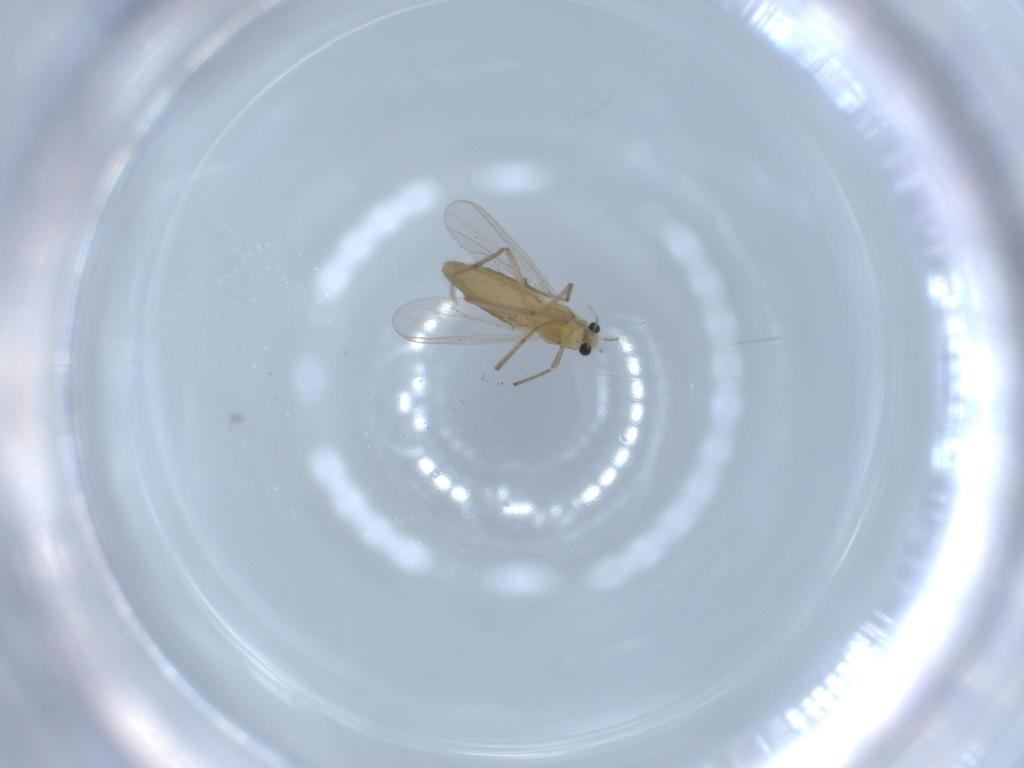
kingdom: Animalia
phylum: Arthropoda
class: Insecta
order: Diptera
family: Chironomidae
